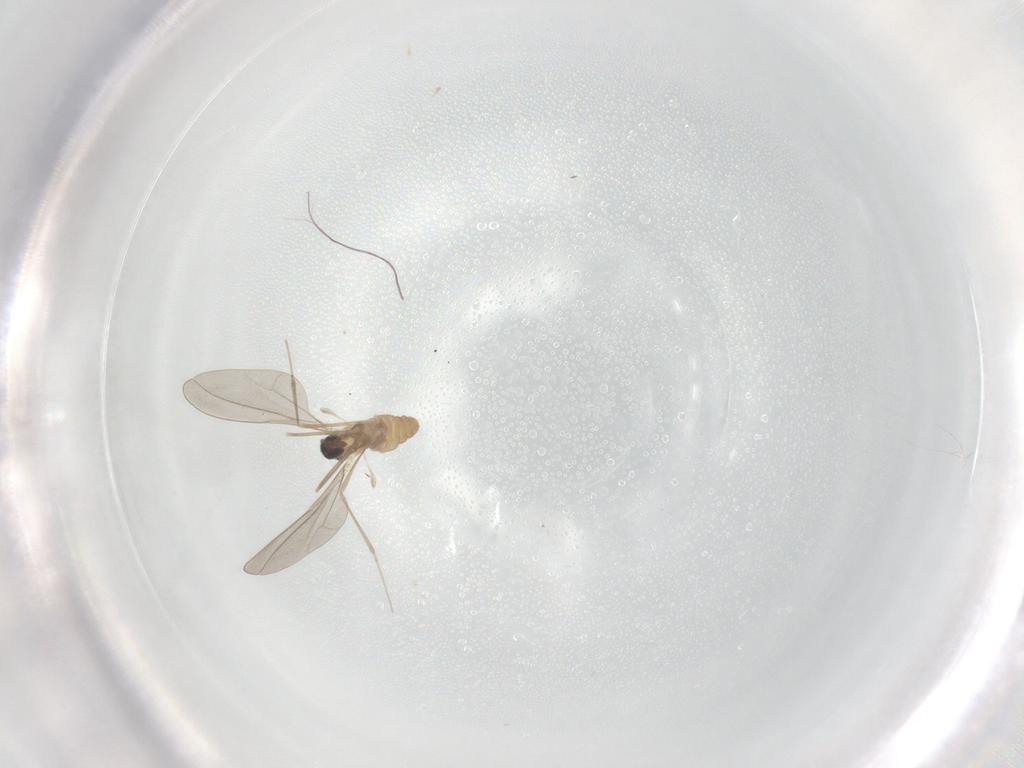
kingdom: Animalia
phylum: Arthropoda
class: Insecta
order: Diptera
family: Cecidomyiidae
